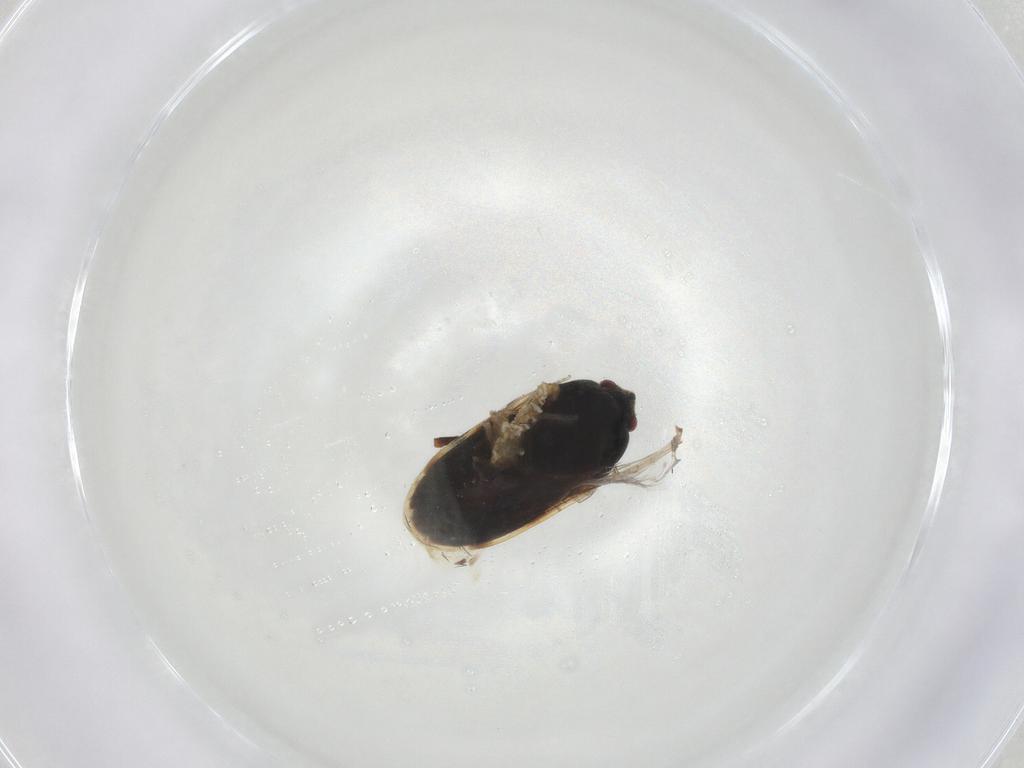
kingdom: Animalia
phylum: Arthropoda
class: Insecta
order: Hemiptera
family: Rhyparochromidae
